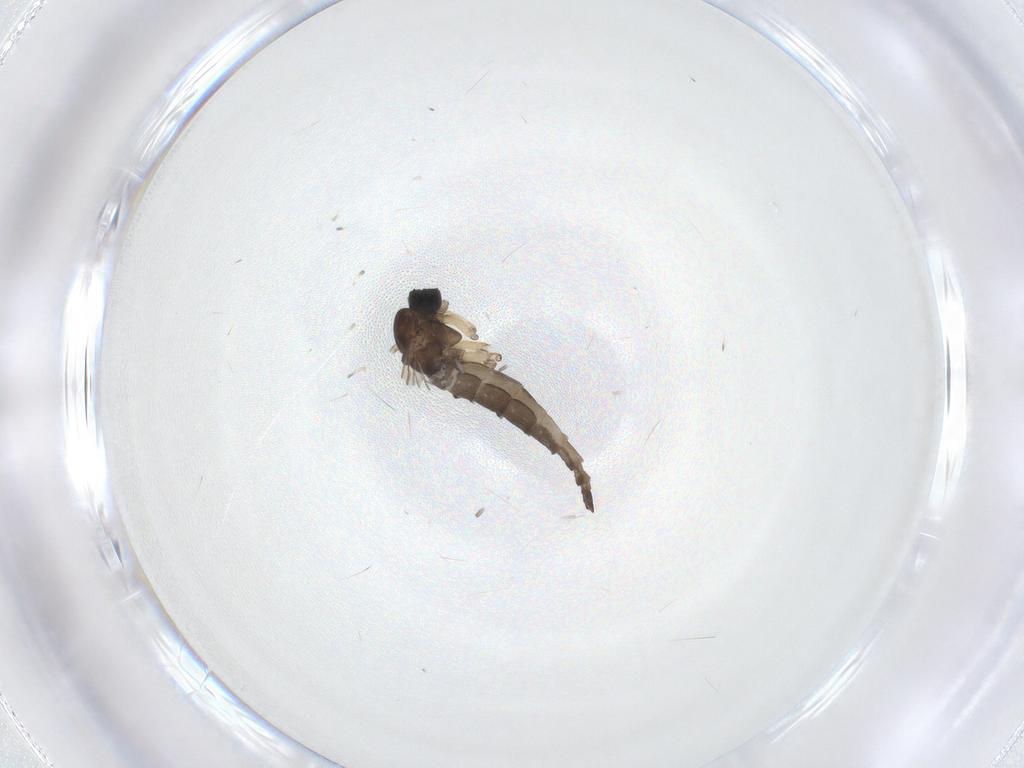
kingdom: Animalia
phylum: Arthropoda
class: Insecta
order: Diptera
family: Sciaridae
